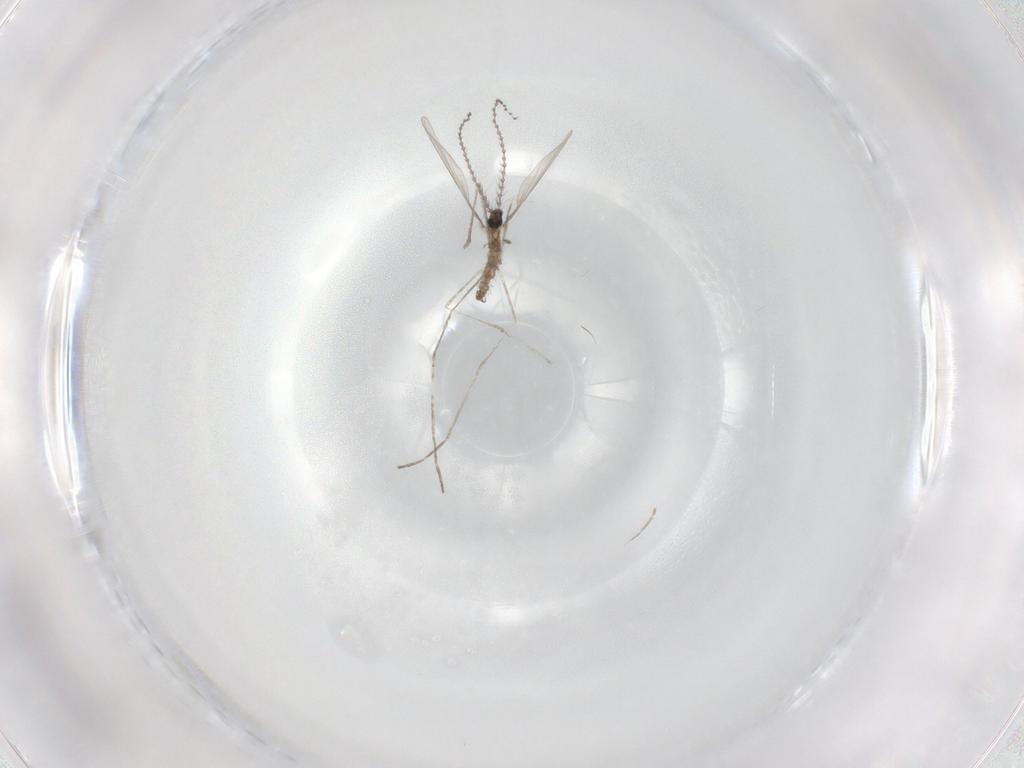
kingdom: Animalia
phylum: Arthropoda
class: Insecta
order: Diptera
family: Cecidomyiidae
